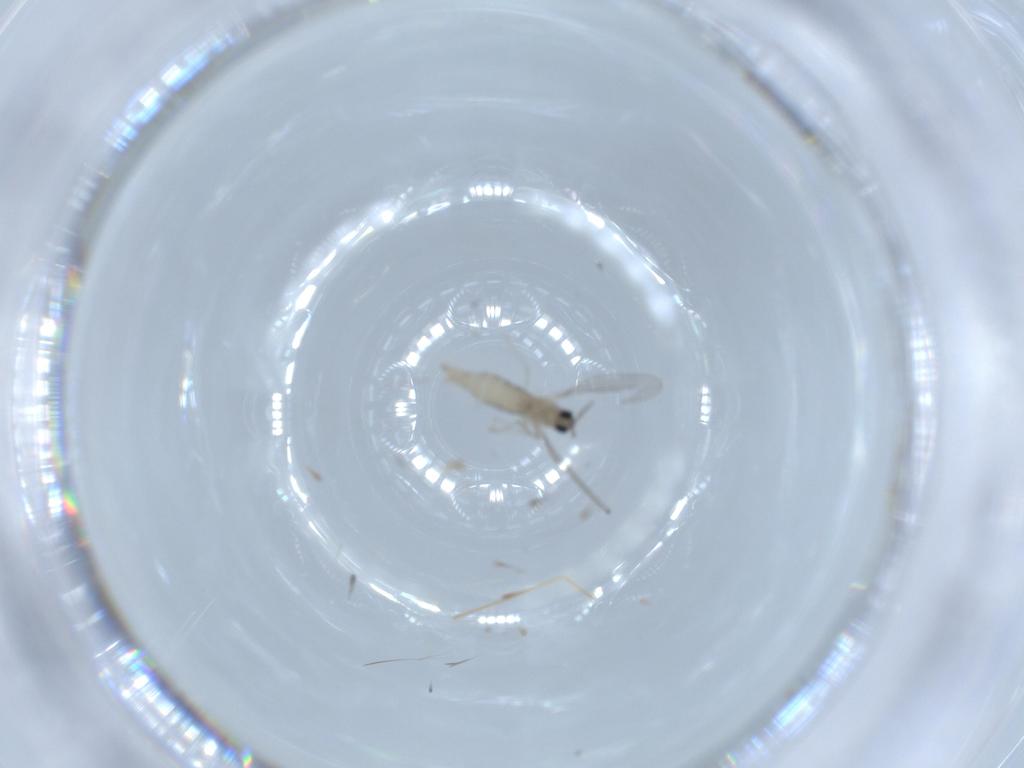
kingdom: Animalia
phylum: Arthropoda
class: Insecta
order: Diptera
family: Cecidomyiidae
